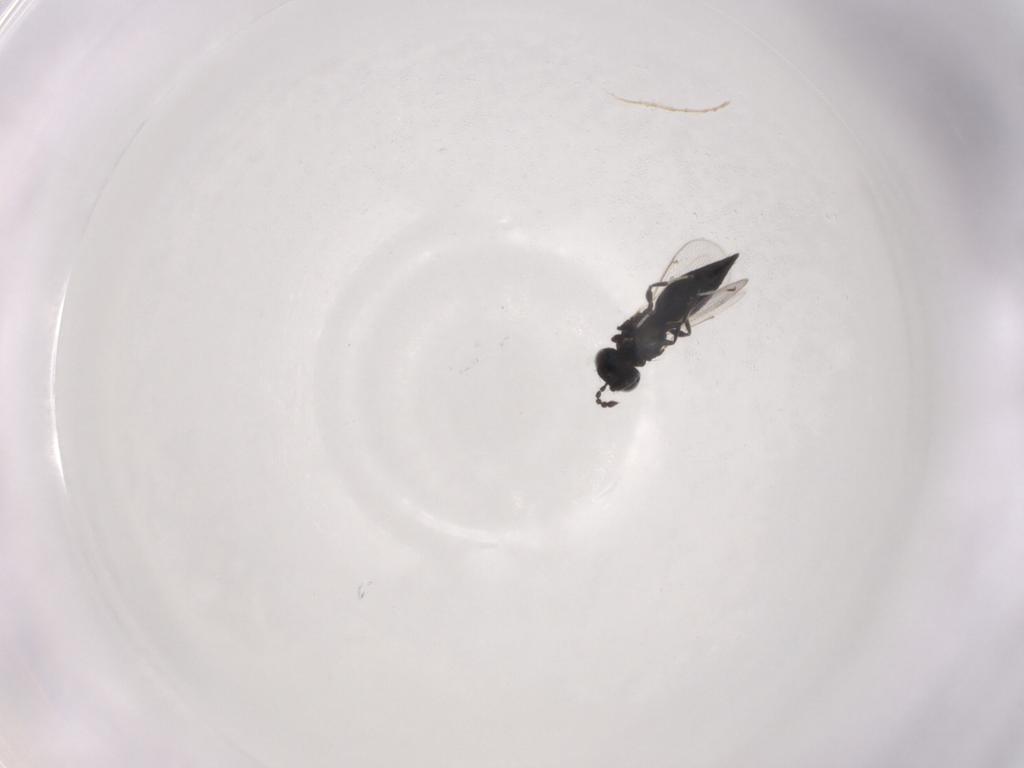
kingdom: Animalia
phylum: Arthropoda
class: Insecta
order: Hymenoptera
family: Eulophidae
